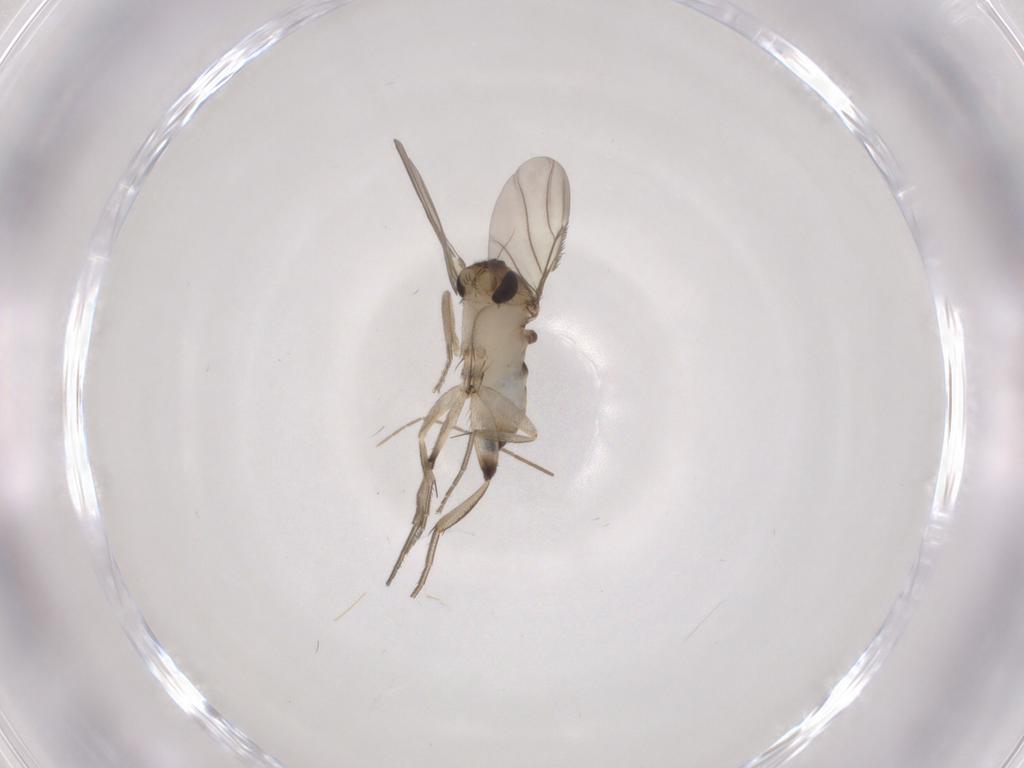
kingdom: Animalia
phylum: Arthropoda
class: Insecta
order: Diptera
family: Phoridae
